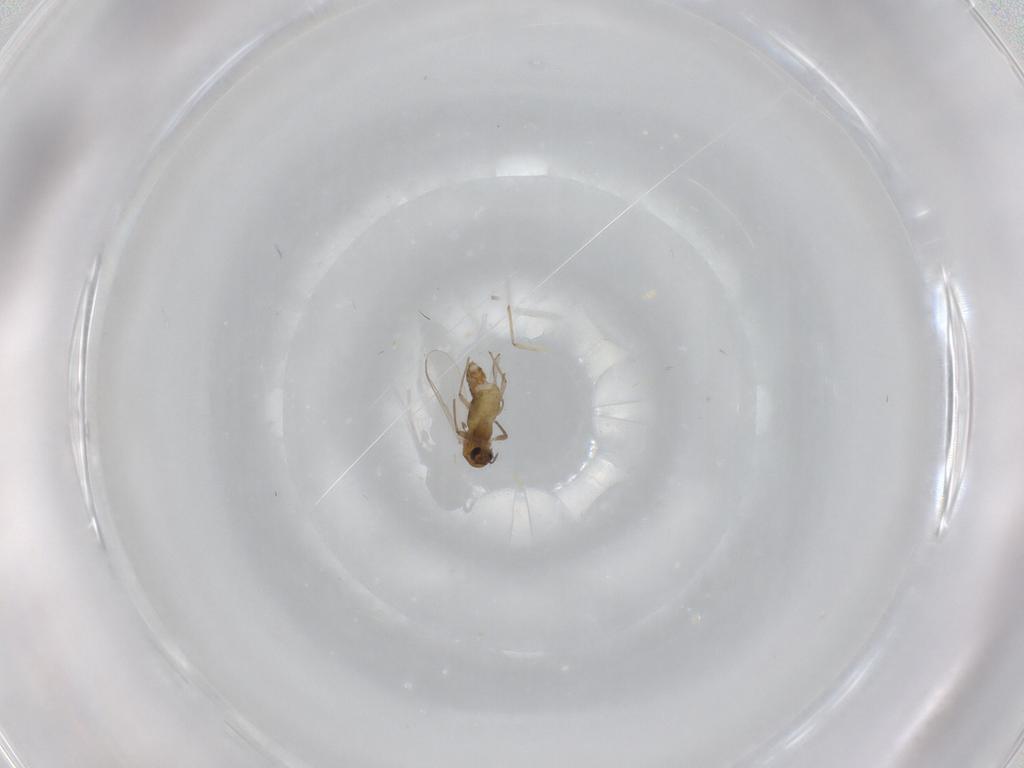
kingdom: Animalia
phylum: Arthropoda
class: Insecta
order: Diptera
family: Chironomidae
